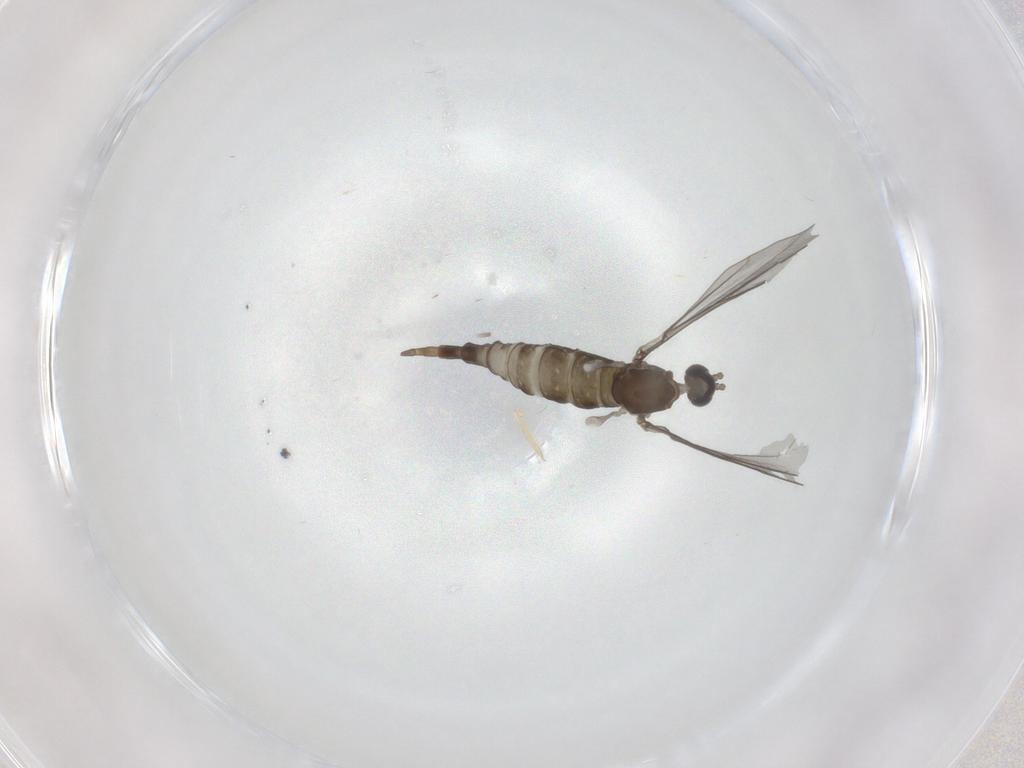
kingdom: Animalia
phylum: Arthropoda
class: Insecta
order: Diptera
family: Cecidomyiidae
